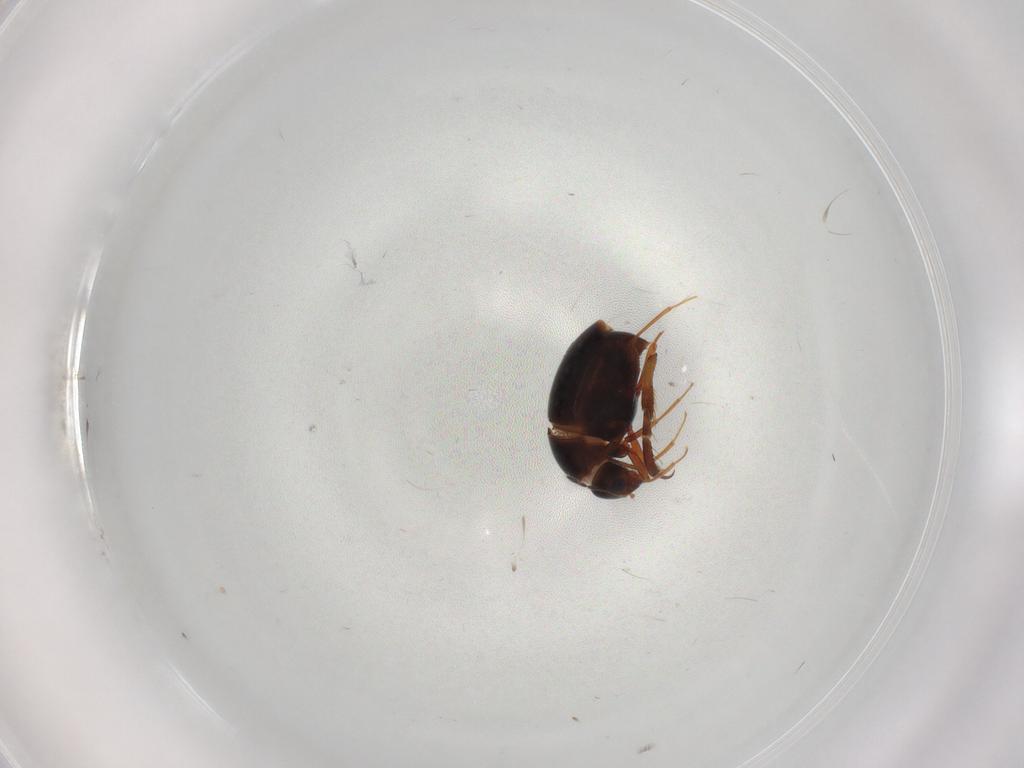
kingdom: Animalia
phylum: Arthropoda
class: Insecta
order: Coleoptera
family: Staphylinidae
